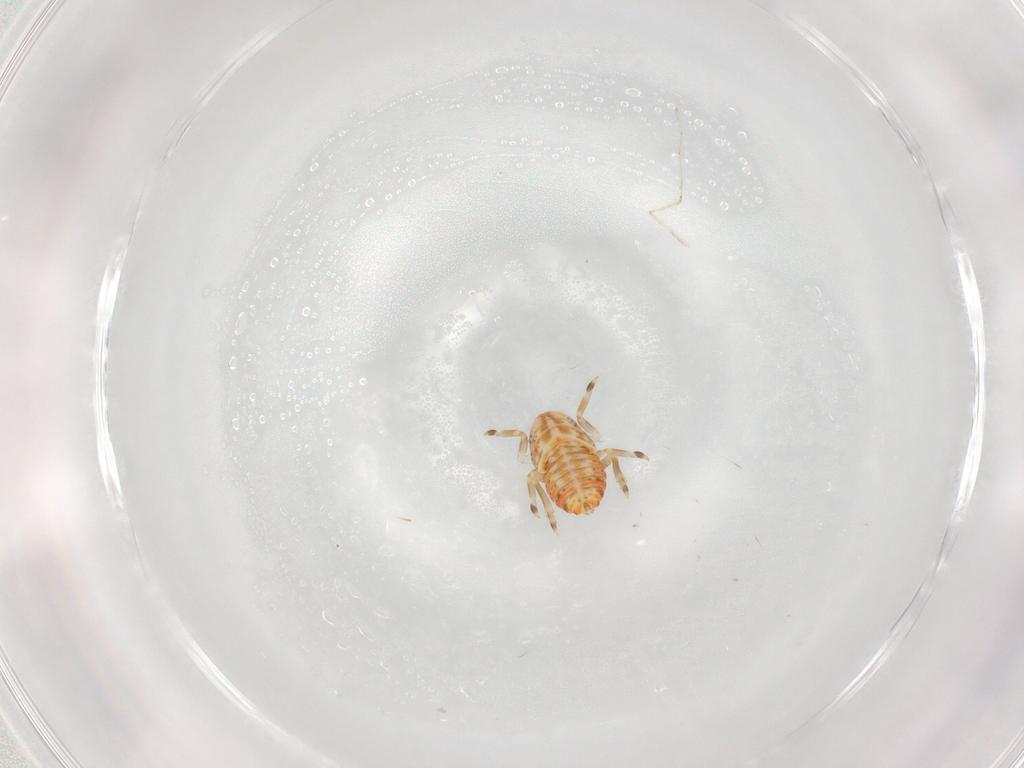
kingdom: Animalia
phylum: Arthropoda
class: Insecta
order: Hemiptera
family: Flatidae
